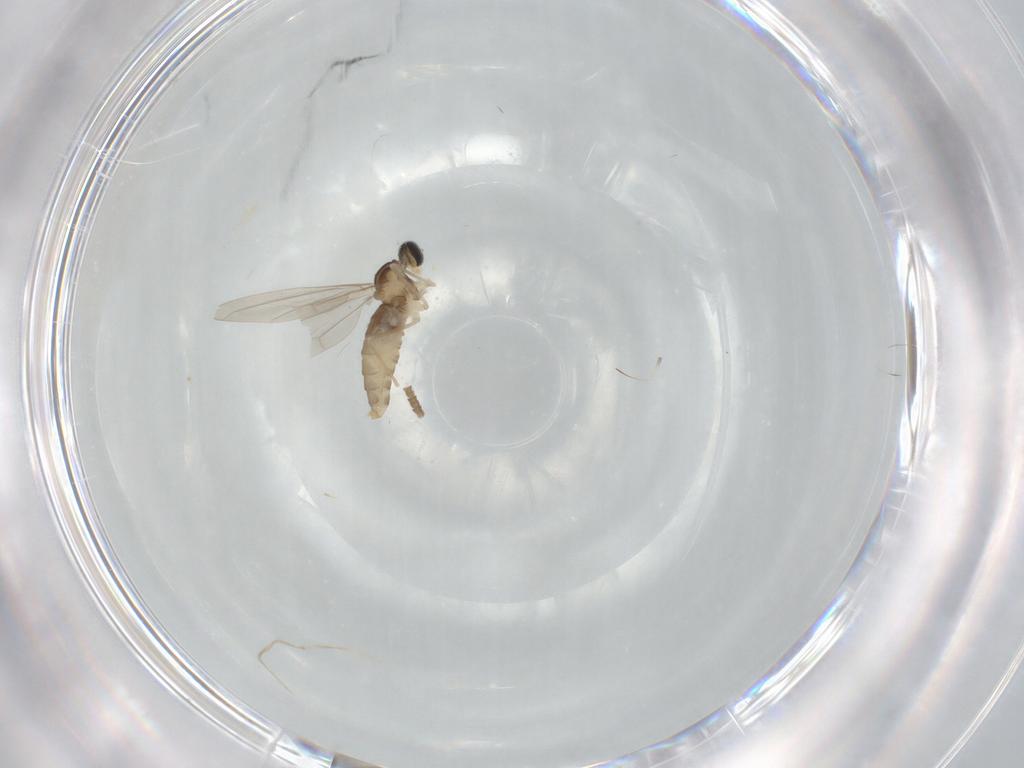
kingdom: Animalia
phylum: Arthropoda
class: Insecta
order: Diptera
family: Cecidomyiidae
